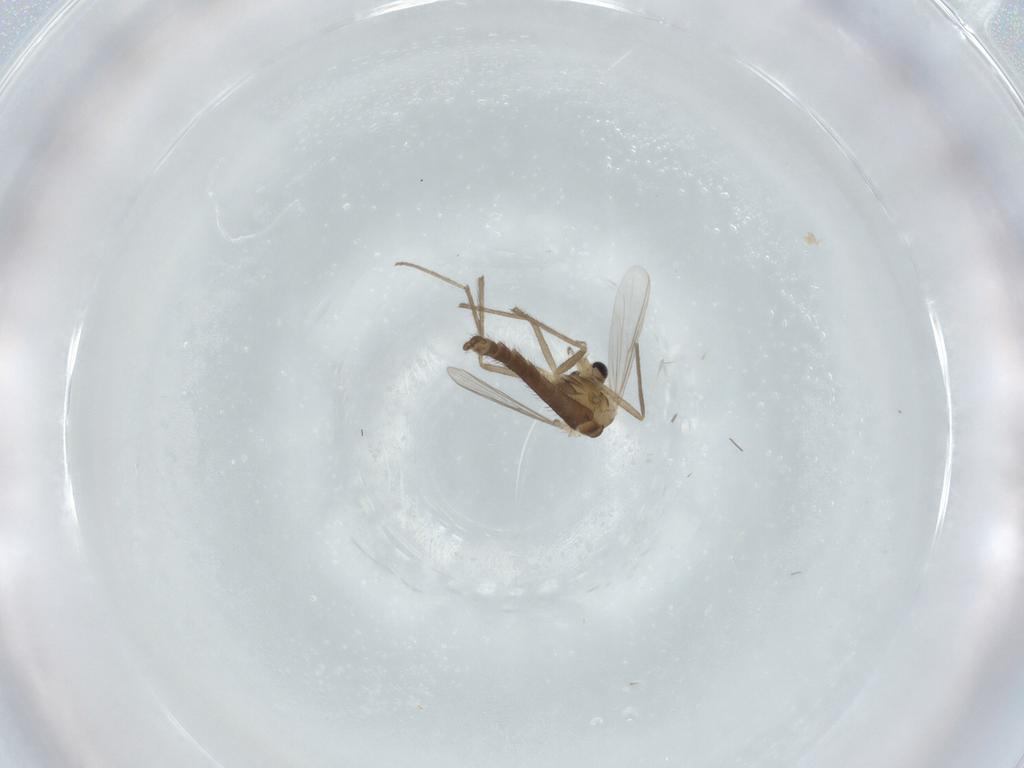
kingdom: Animalia
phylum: Arthropoda
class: Insecta
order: Diptera
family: Chironomidae
